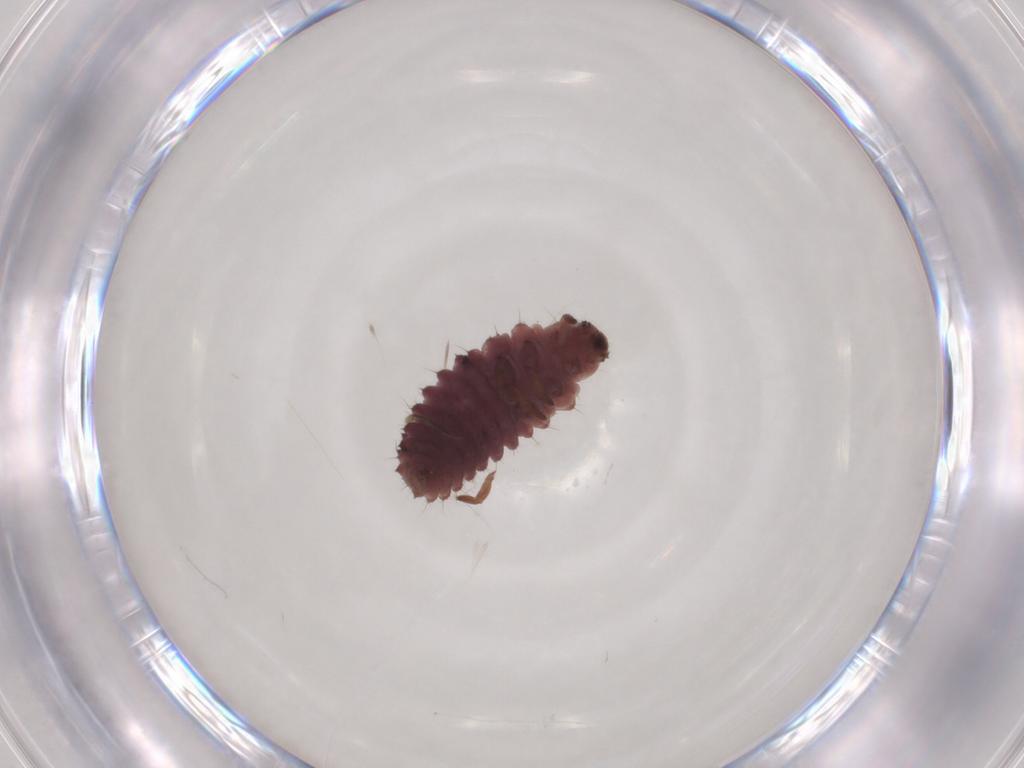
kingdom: Animalia
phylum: Arthropoda
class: Insecta
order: Coleoptera
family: Coccinellidae
